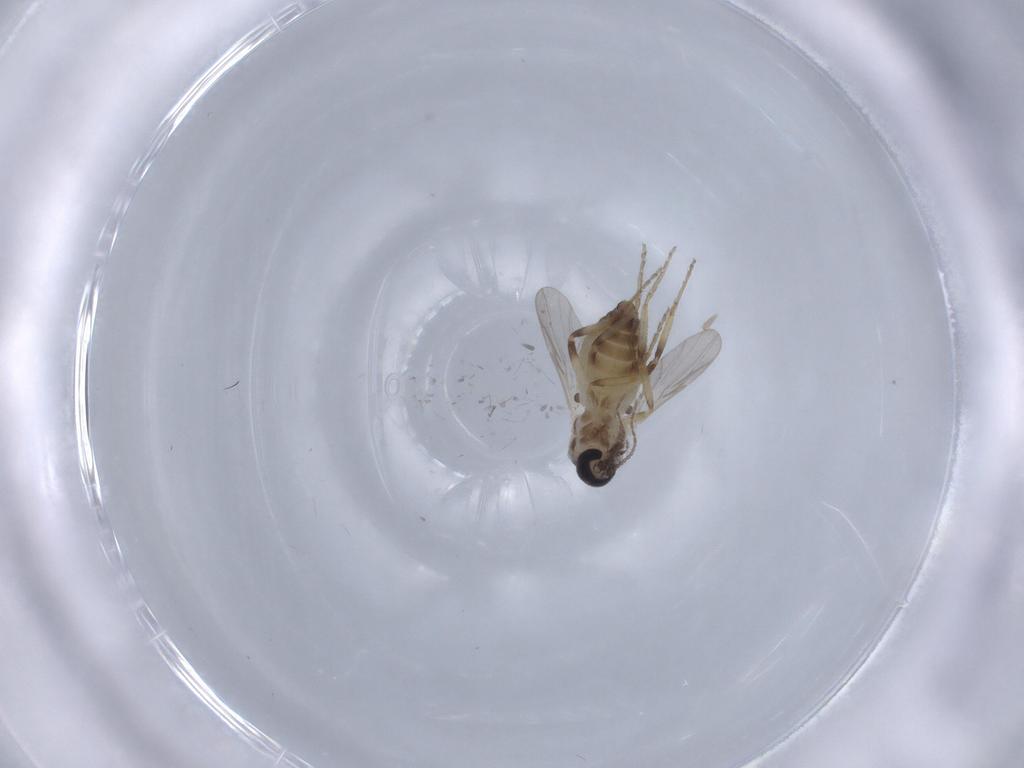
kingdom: Animalia
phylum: Arthropoda
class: Insecta
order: Diptera
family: Ceratopogonidae
